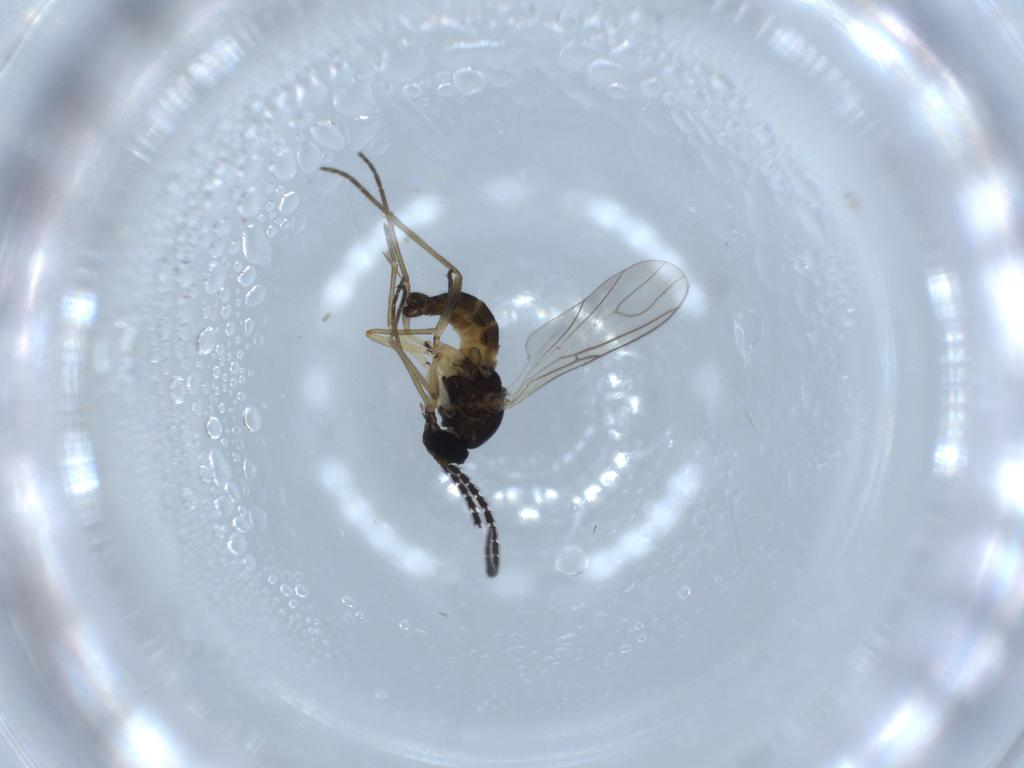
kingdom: Animalia
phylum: Arthropoda
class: Insecta
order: Diptera
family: Sciaridae
